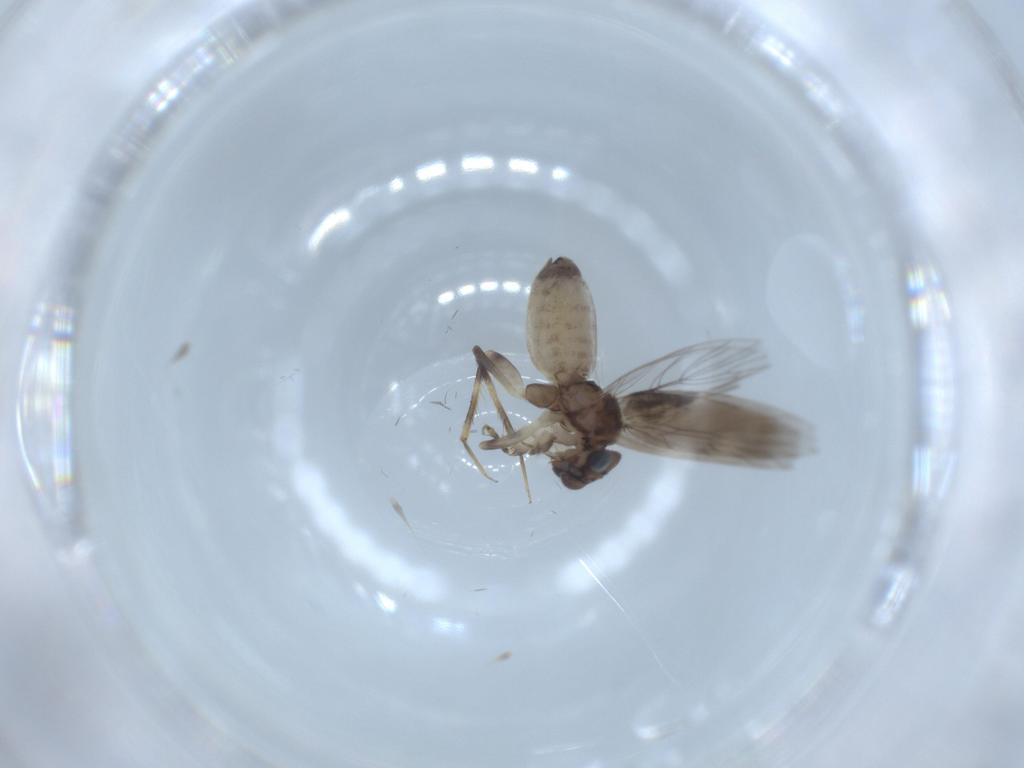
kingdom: Animalia
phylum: Arthropoda
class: Insecta
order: Psocodea
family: Lepidopsocidae
